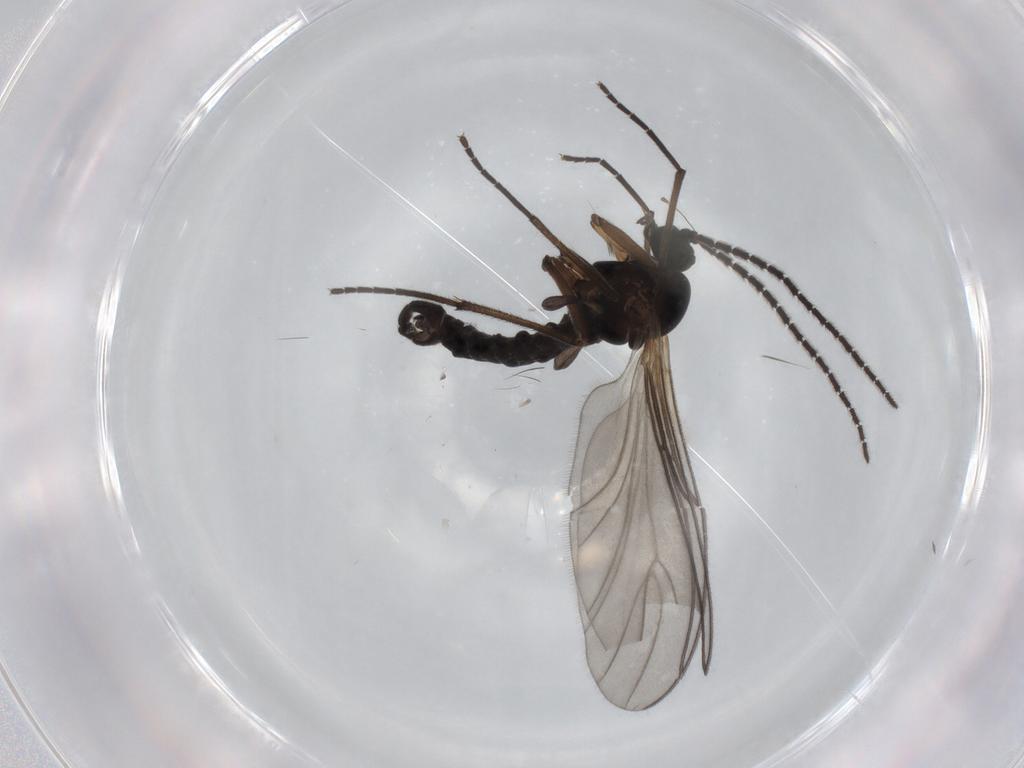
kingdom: Animalia
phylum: Arthropoda
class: Insecta
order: Diptera
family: Sciaridae
